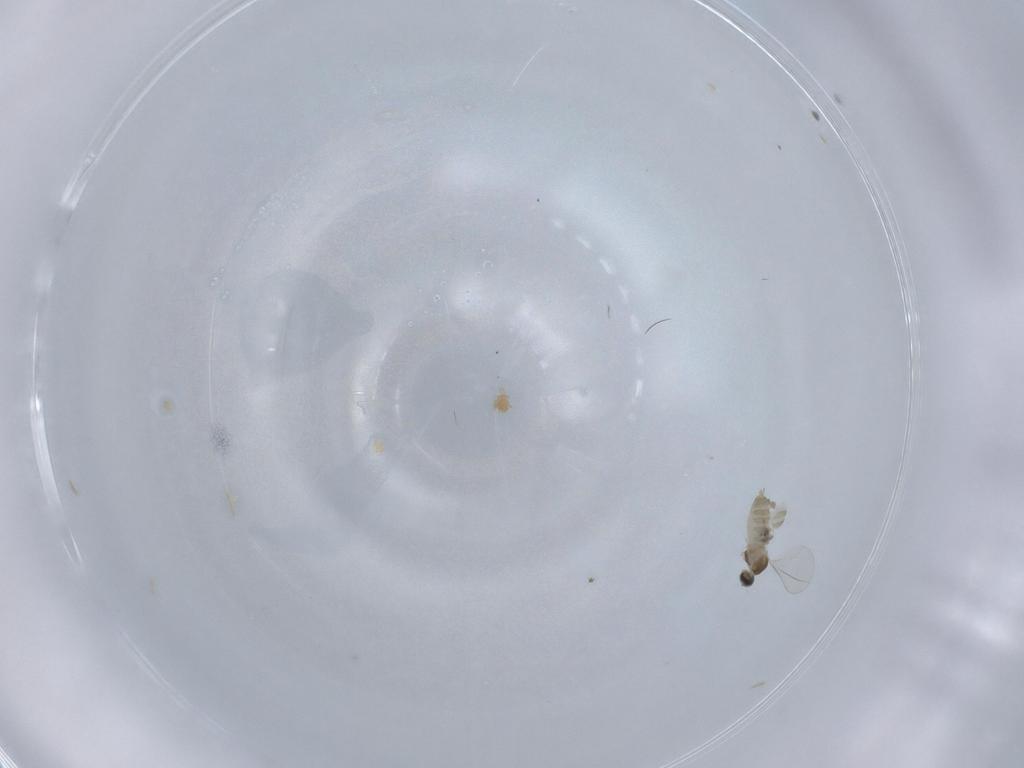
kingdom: Animalia
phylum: Arthropoda
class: Insecta
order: Diptera
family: Cecidomyiidae
